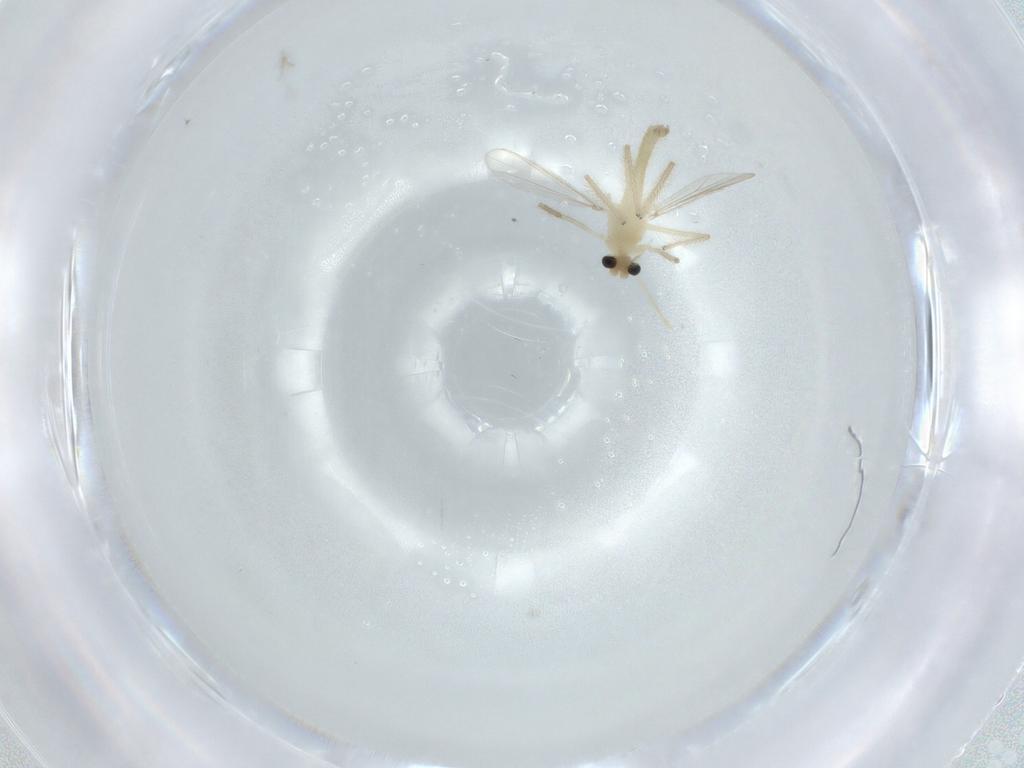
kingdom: Animalia
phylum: Arthropoda
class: Insecta
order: Diptera
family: Chironomidae
